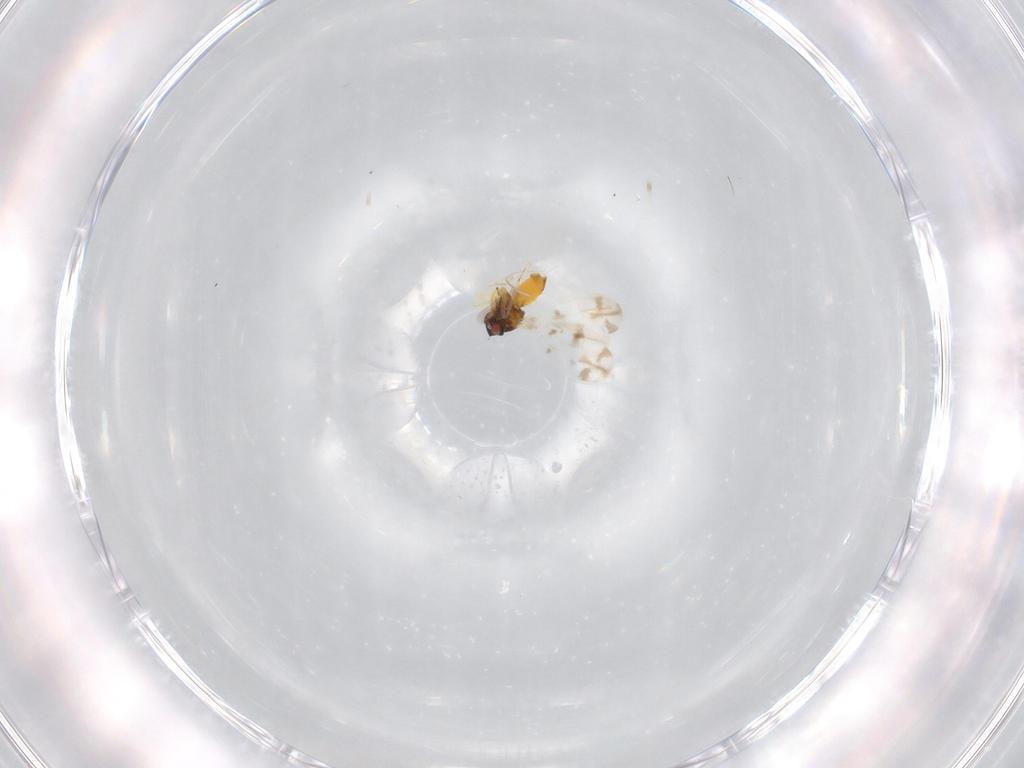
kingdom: Animalia
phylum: Arthropoda
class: Insecta
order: Hemiptera
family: Aleyrodidae
